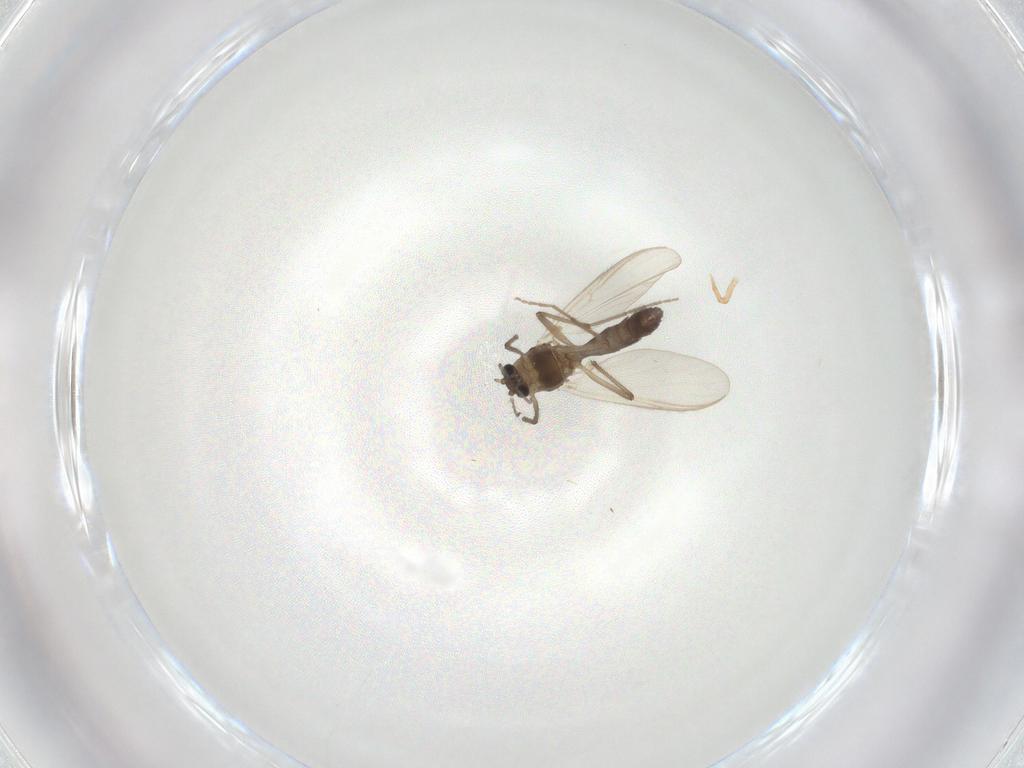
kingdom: Animalia
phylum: Arthropoda
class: Insecta
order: Diptera
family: Chironomidae
